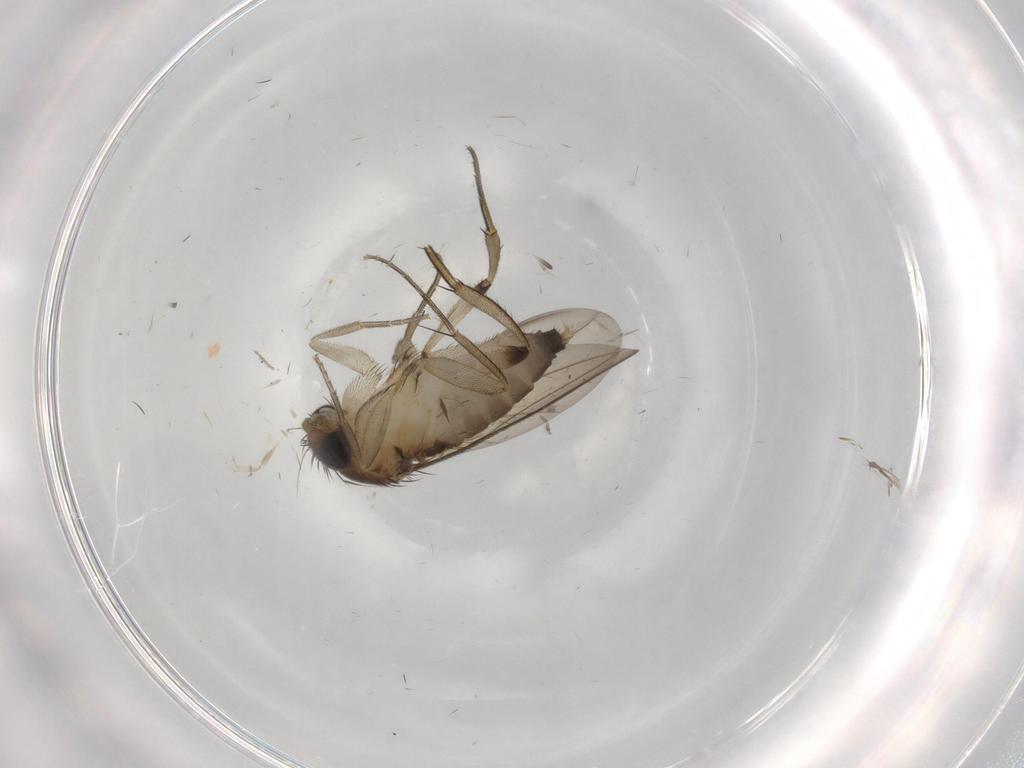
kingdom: Animalia
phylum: Arthropoda
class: Insecta
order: Diptera
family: Phoridae
